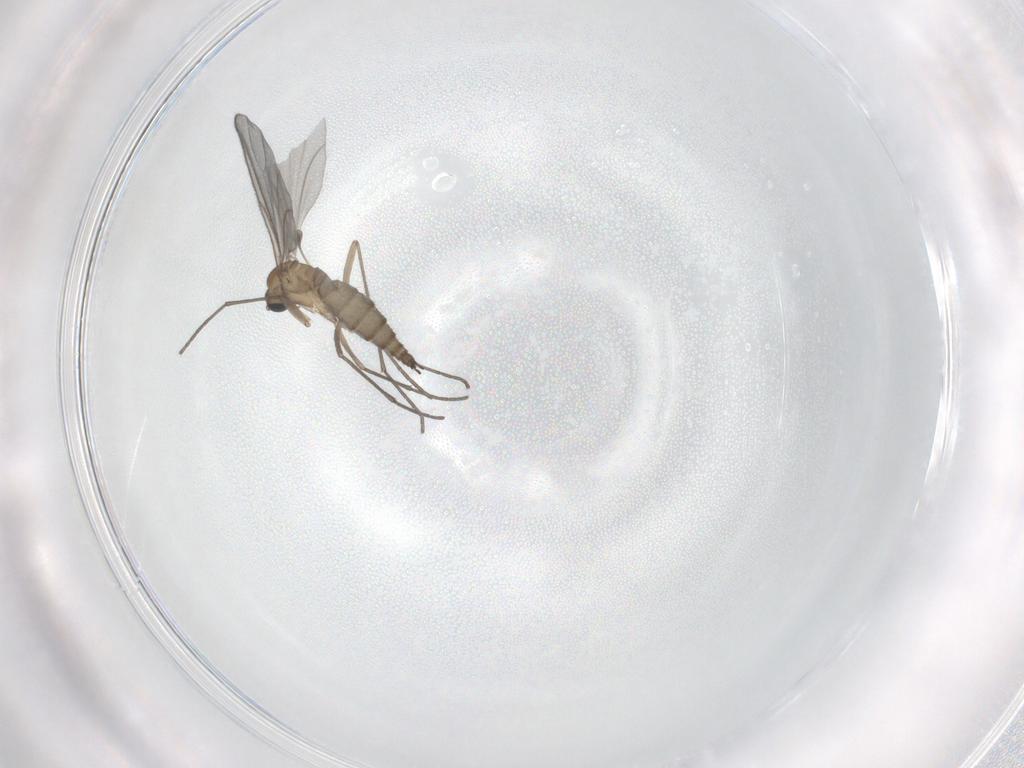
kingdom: Animalia
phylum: Arthropoda
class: Insecta
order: Diptera
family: Sciaridae
